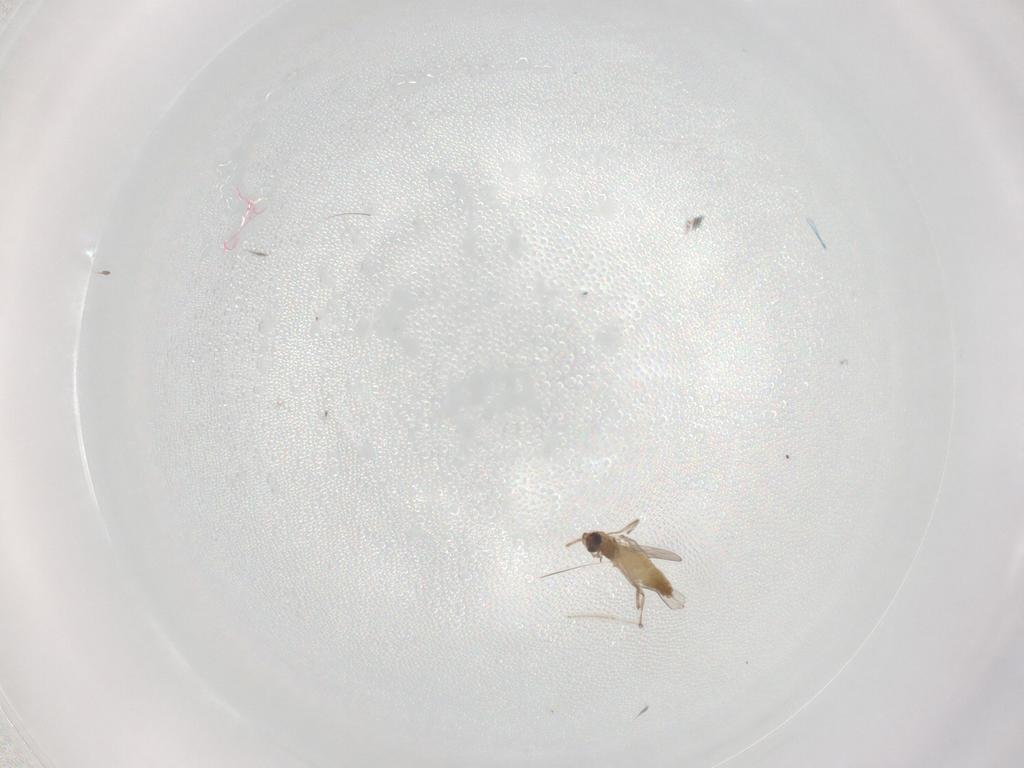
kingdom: Animalia
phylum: Arthropoda
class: Insecta
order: Diptera
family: Chironomidae
